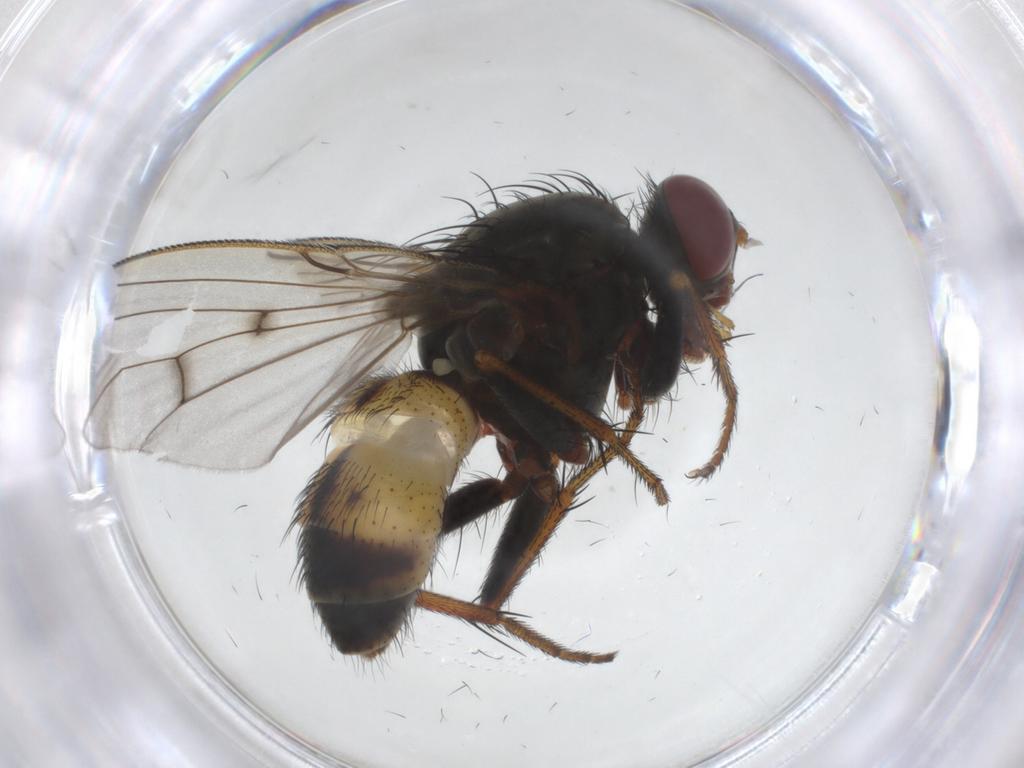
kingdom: Animalia
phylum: Arthropoda
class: Insecta
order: Diptera
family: Muscidae
